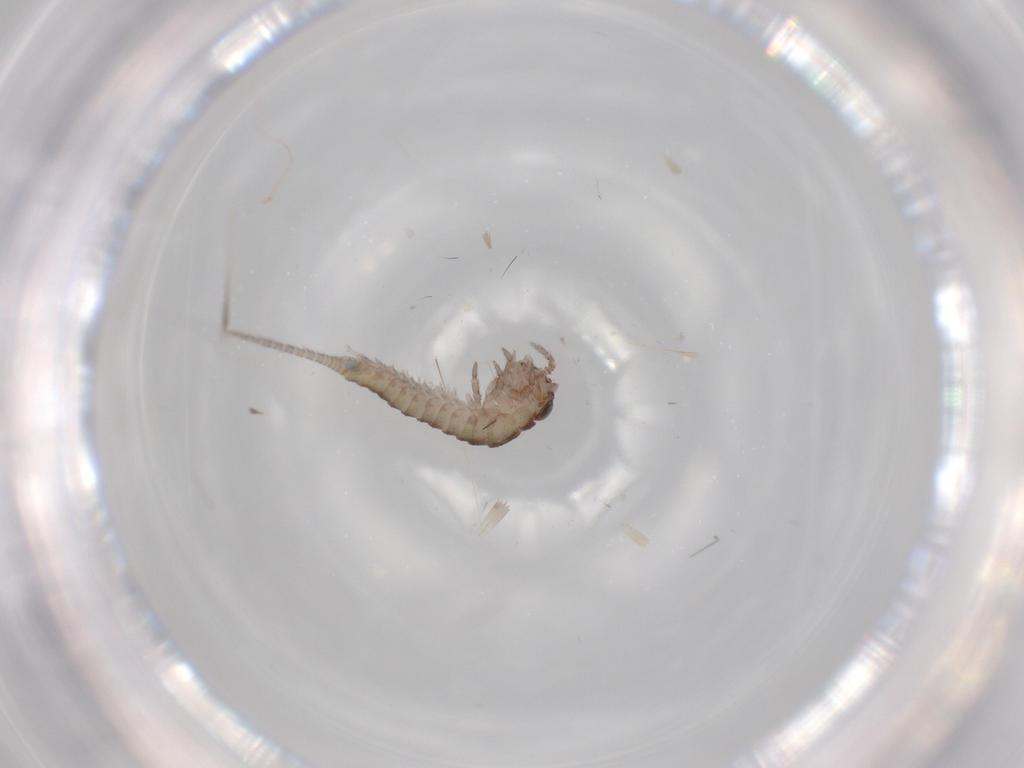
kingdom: Animalia
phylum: Arthropoda
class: Insecta
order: Archaeognatha
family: Machilidae
